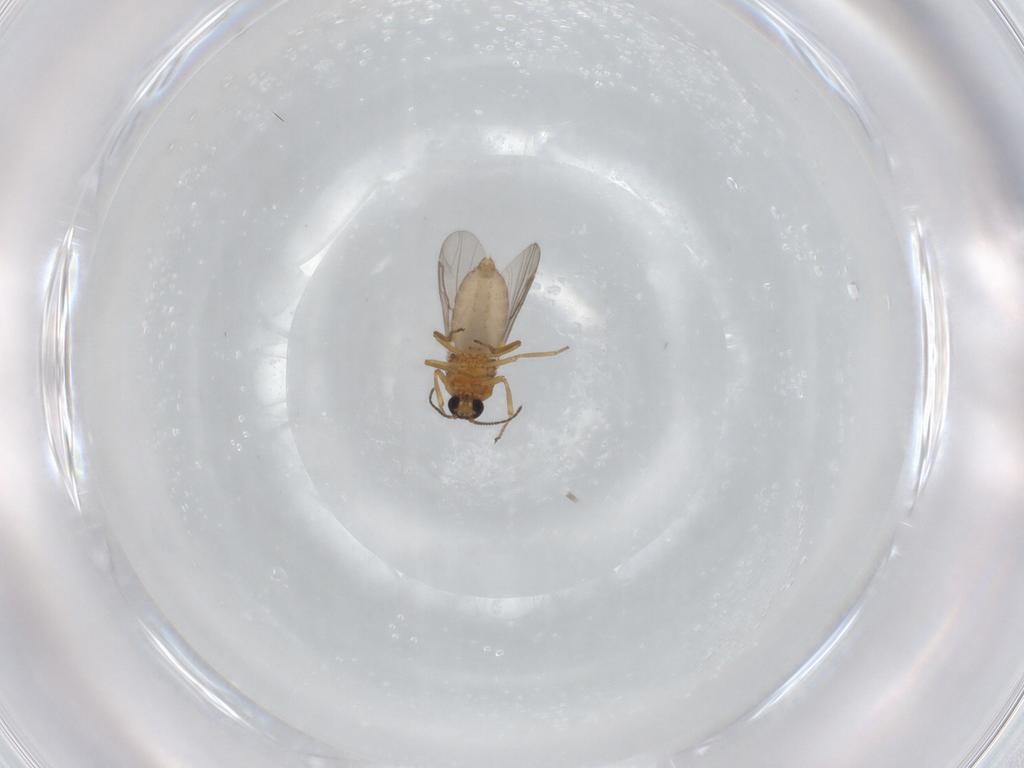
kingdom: Animalia
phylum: Arthropoda
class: Insecta
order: Diptera
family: Ceratopogonidae
